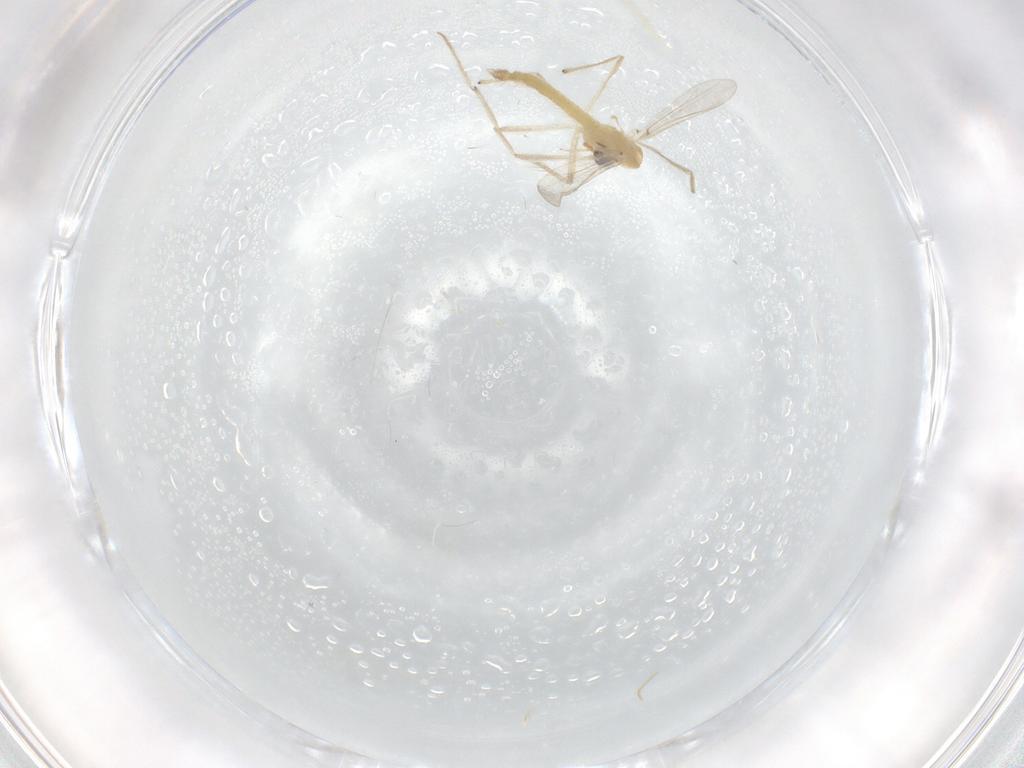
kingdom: Animalia
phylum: Arthropoda
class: Insecta
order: Diptera
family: Chironomidae
